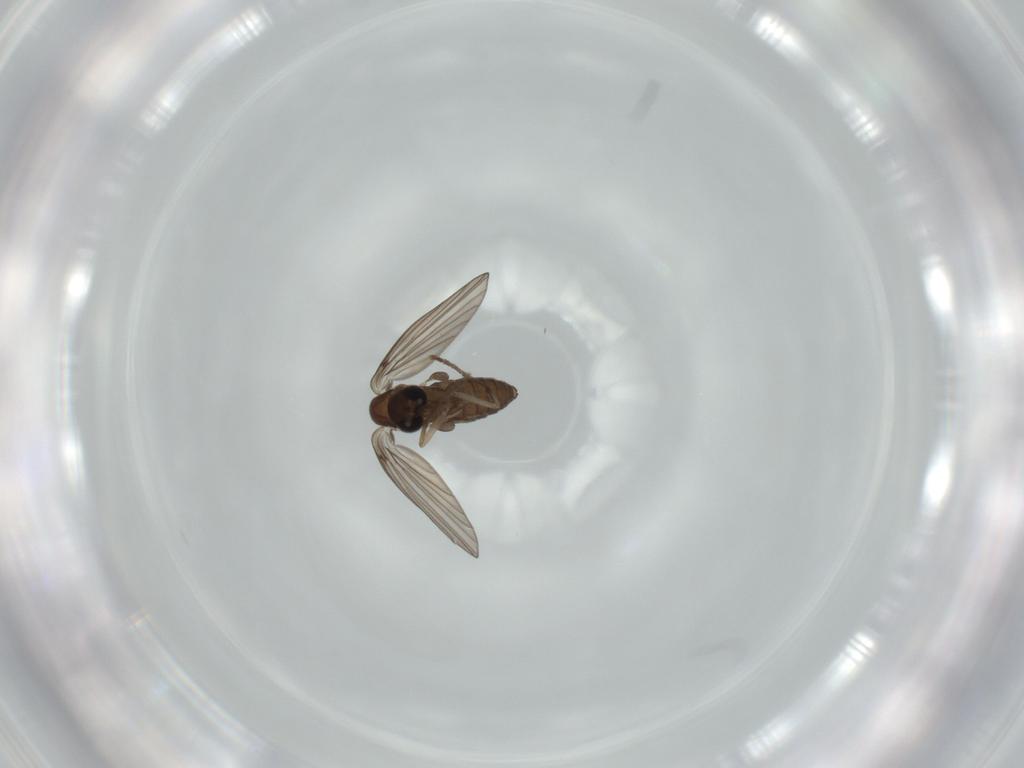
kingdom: Animalia
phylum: Arthropoda
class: Insecta
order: Diptera
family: Psychodidae
